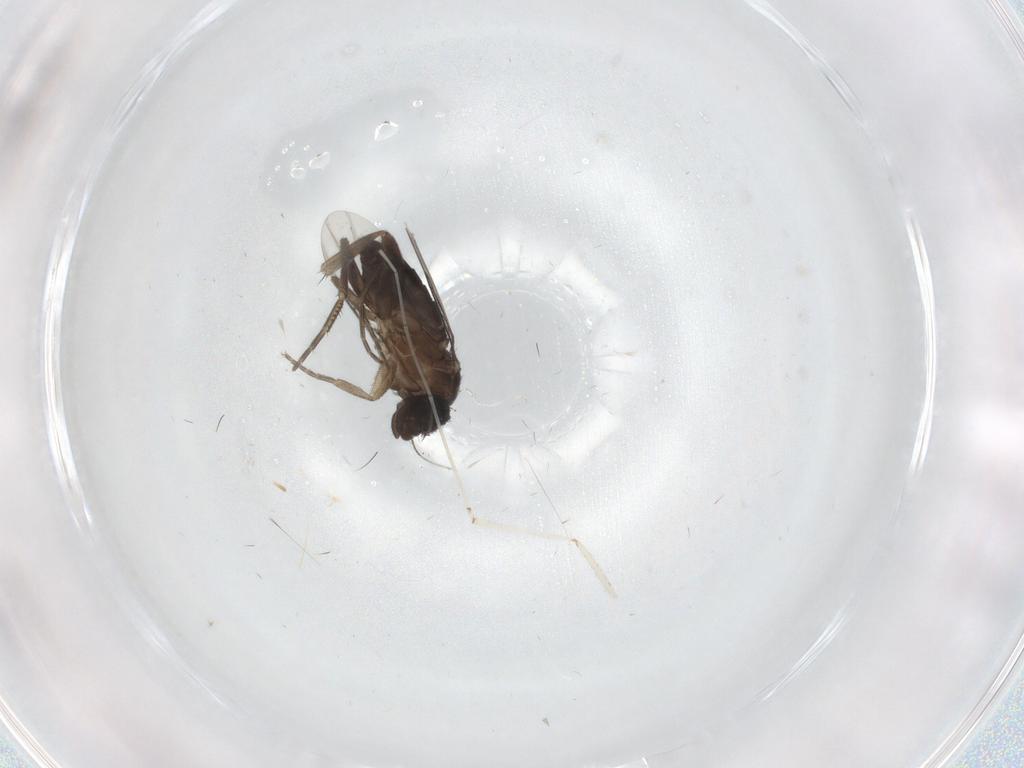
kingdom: Animalia
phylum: Arthropoda
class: Insecta
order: Diptera
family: Phoridae
